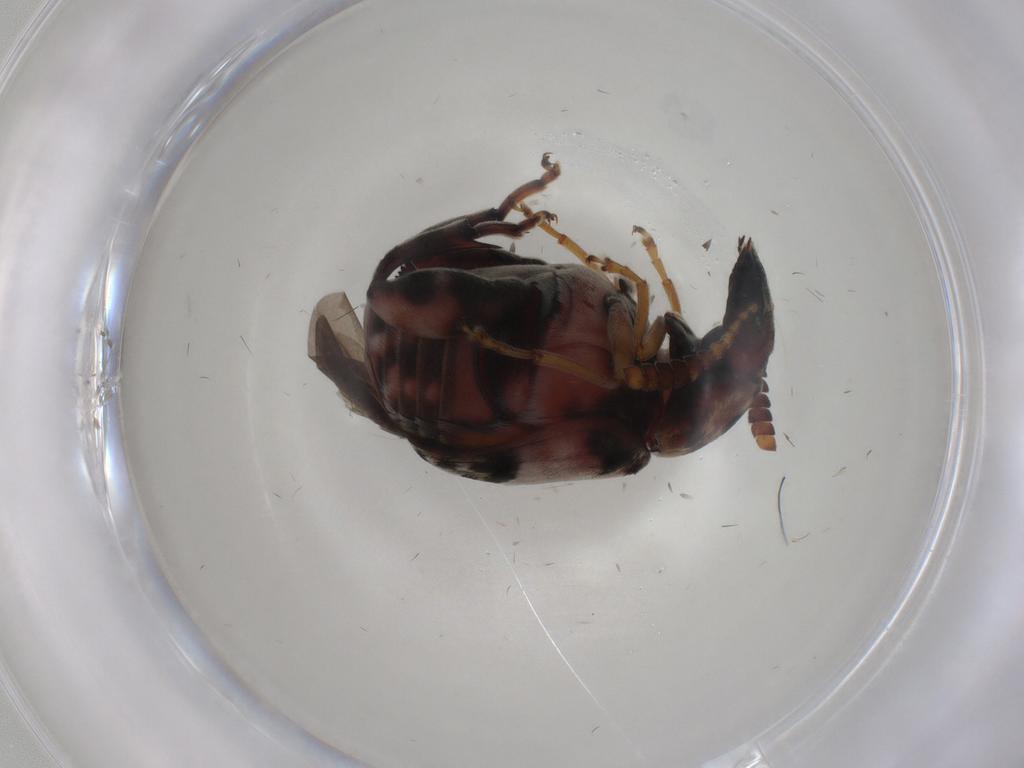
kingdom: Animalia
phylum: Arthropoda
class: Insecta
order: Coleoptera
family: Chrysomelidae
